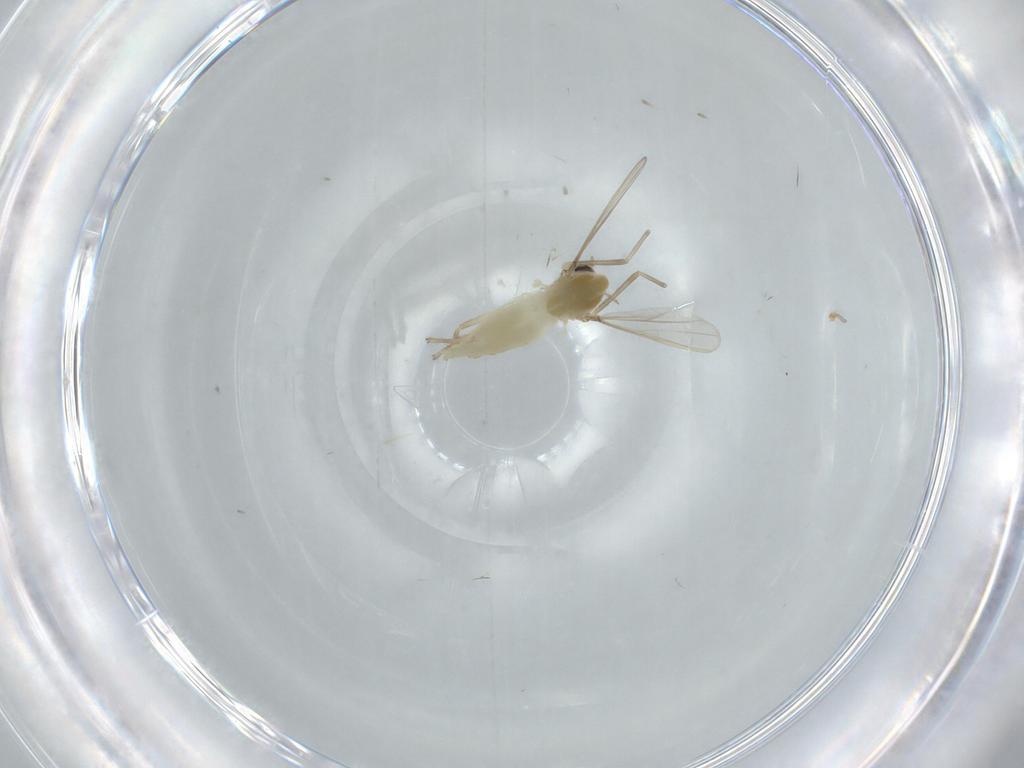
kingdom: Animalia
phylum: Arthropoda
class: Insecta
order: Diptera
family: Chironomidae
